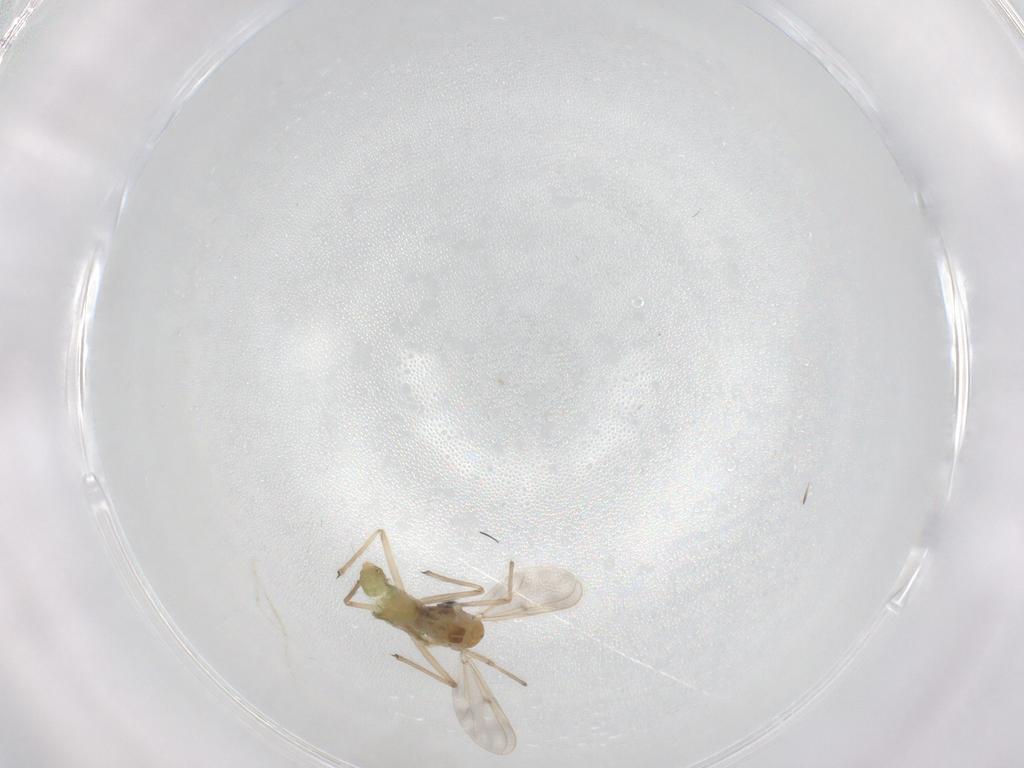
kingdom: Animalia
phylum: Arthropoda
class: Insecta
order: Diptera
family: Chironomidae
